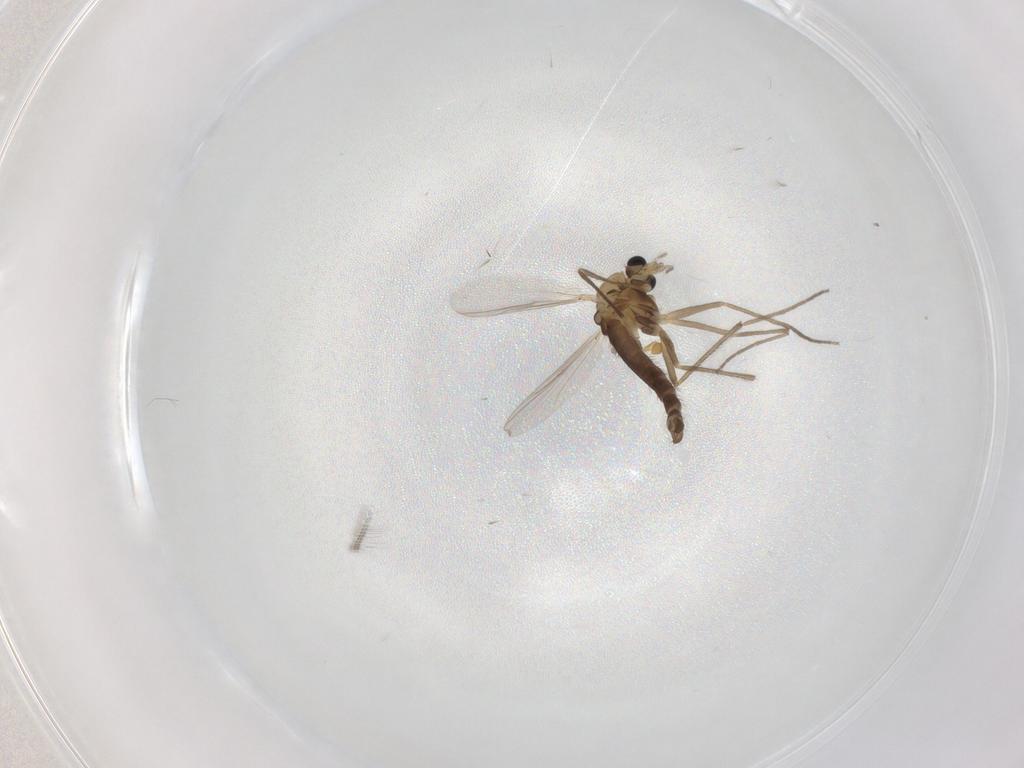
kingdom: Animalia
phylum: Arthropoda
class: Insecta
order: Diptera
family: Chironomidae
